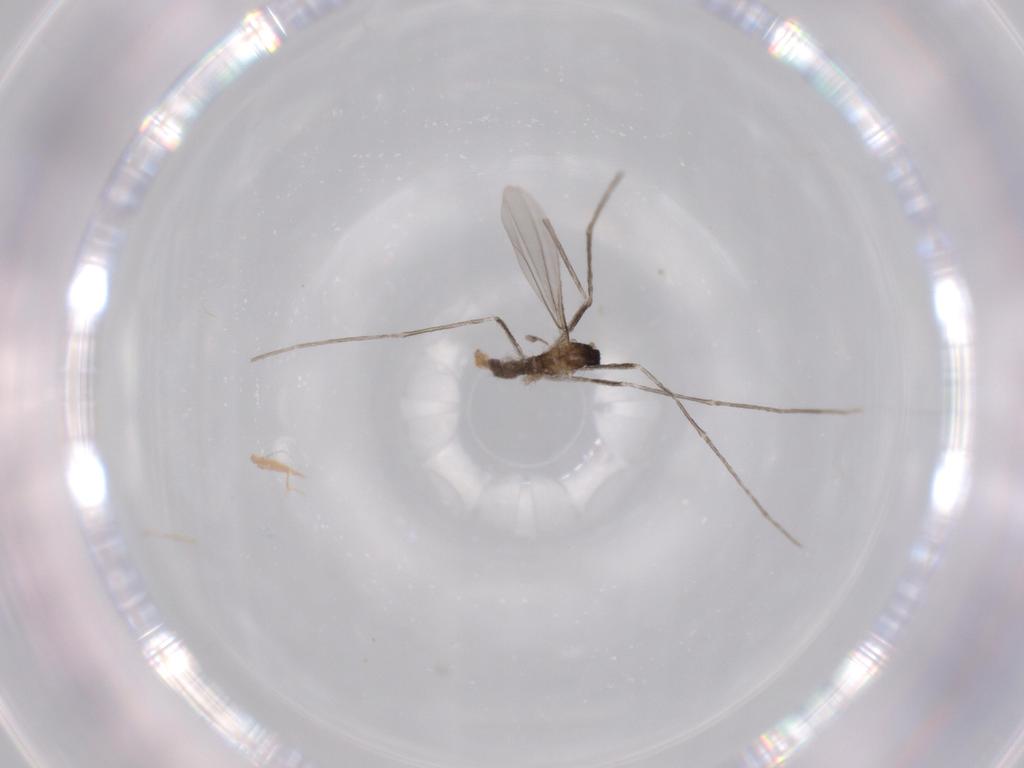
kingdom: Animalia
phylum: Arthropoda
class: Insecta
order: Diptera
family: Cecidomyiidae
